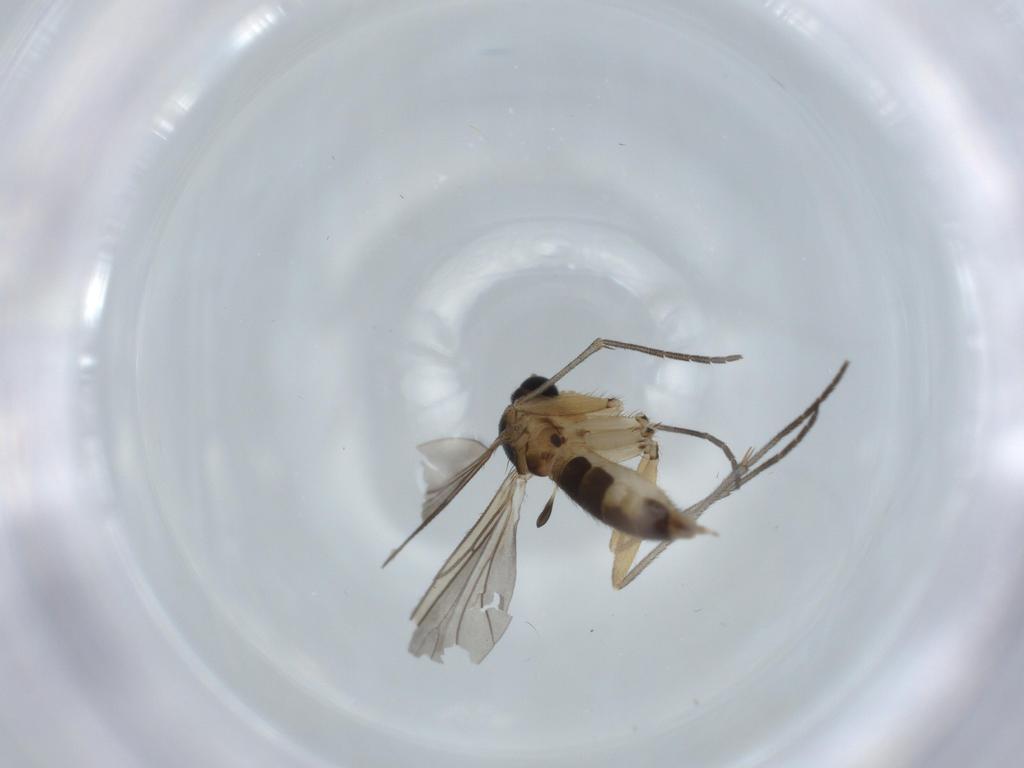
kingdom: Animalia
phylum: Arthropoda
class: Insecta
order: Diptera
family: Sciaridae
